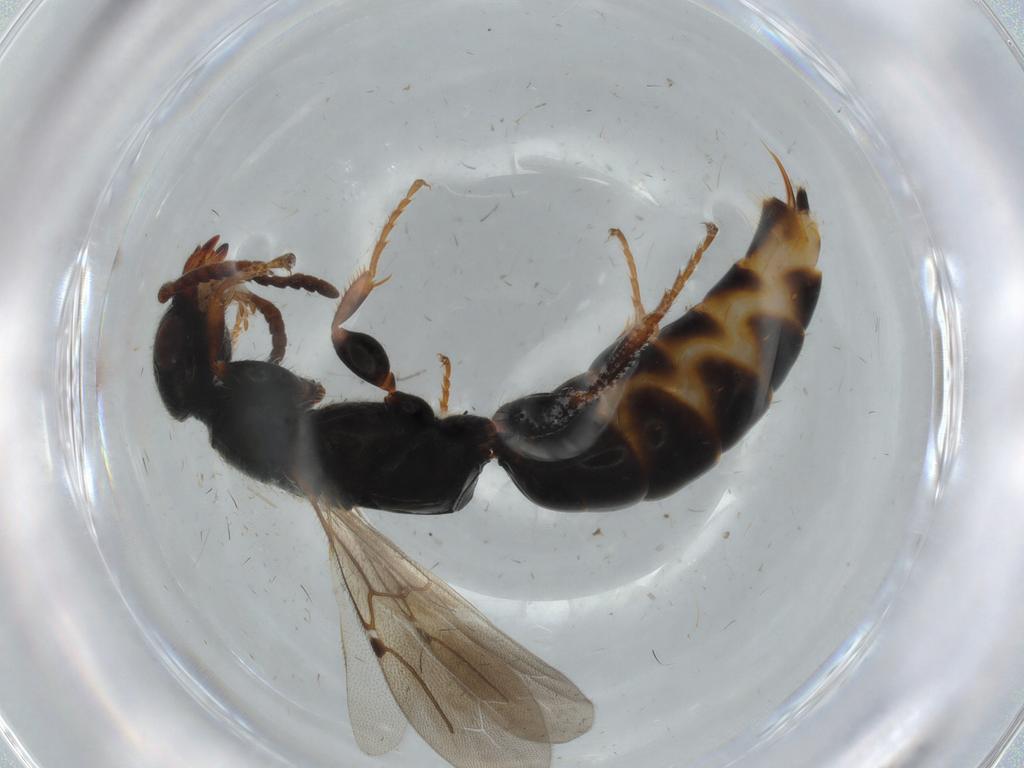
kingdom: Animalia
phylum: Arthropoda
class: Insecta
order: Hymenoptera
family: Bethylidae
